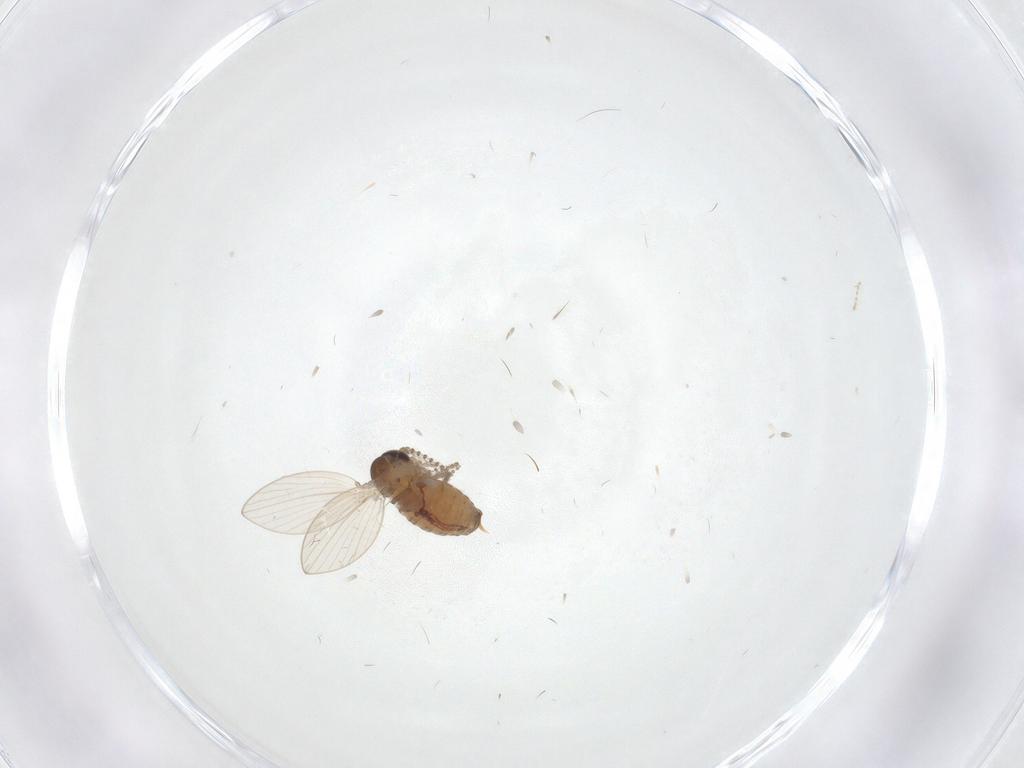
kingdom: Animalia
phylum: Arthropoda
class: Insecta
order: Diptera
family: Psychodidae
